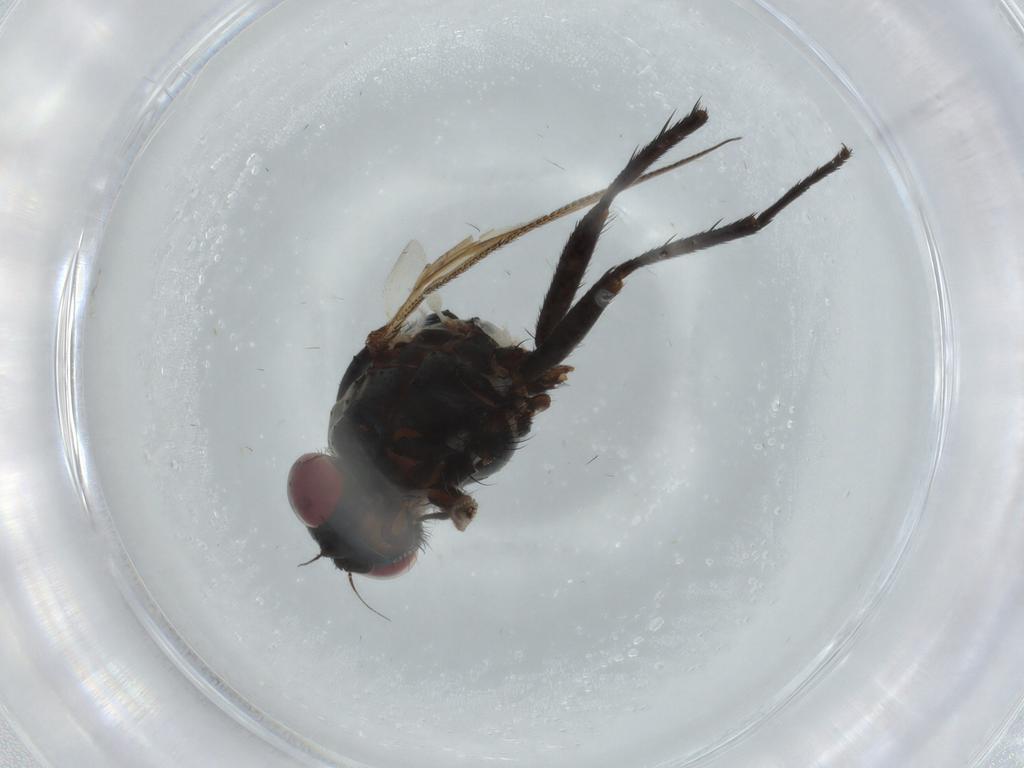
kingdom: Animalia
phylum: Arthropoda
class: Insecta
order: Diptera
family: Anthomyiidae
